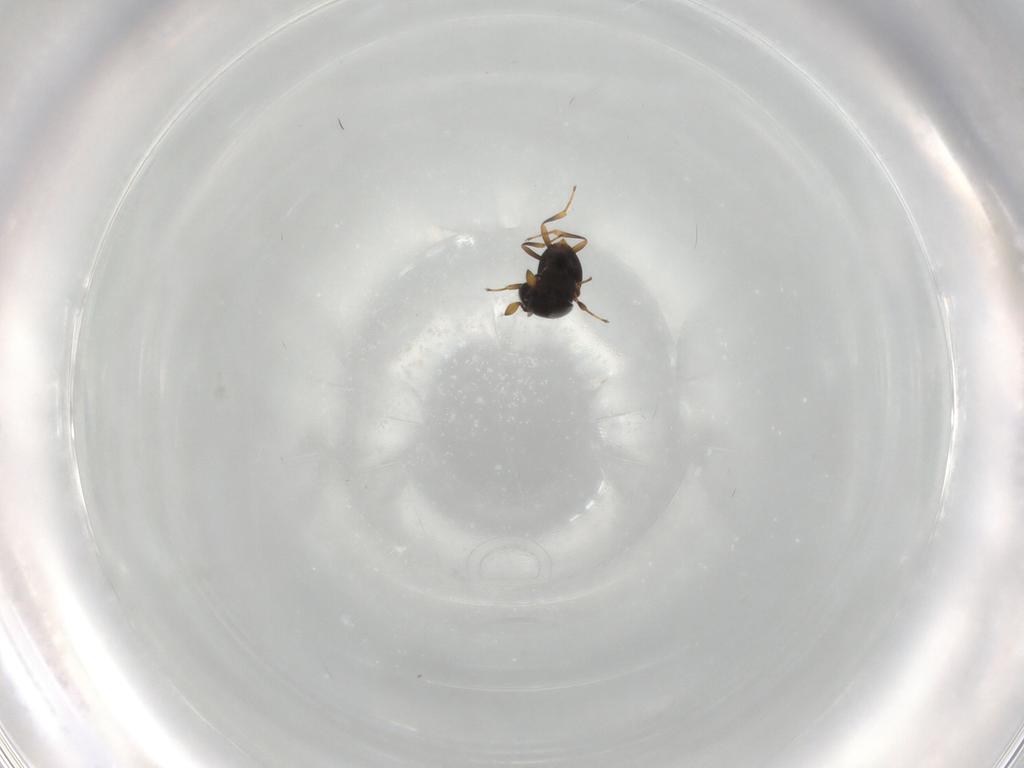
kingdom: Animalia
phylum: Arthropoda
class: Insecta
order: Hymenoptera
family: Scelionidae
